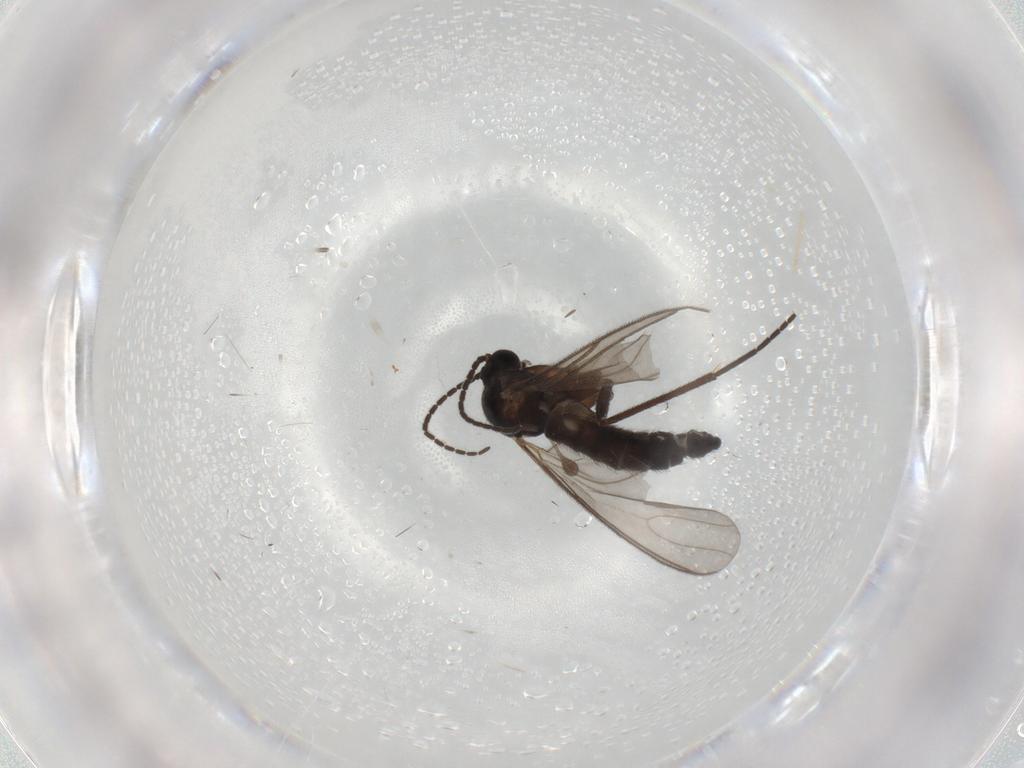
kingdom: Animalia
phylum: Arthropoda
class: Insecta
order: Diptera
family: Sciaridae
